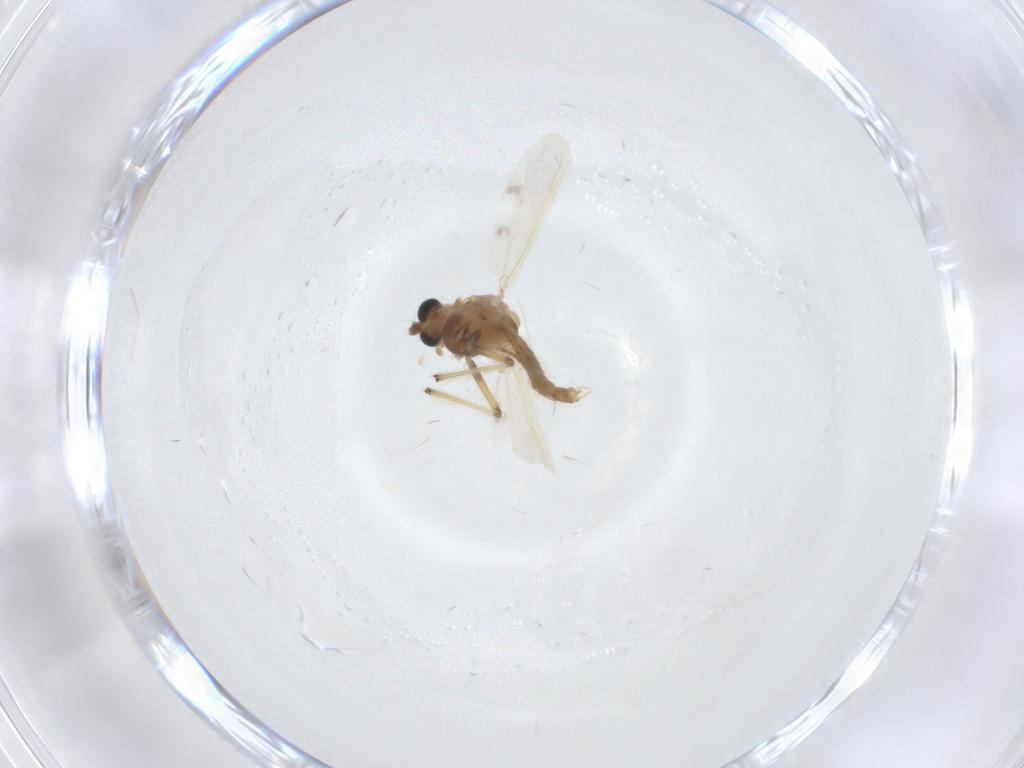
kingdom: Animalia
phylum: Arthropoda
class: Insecta
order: Diptera
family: Chironomidae
